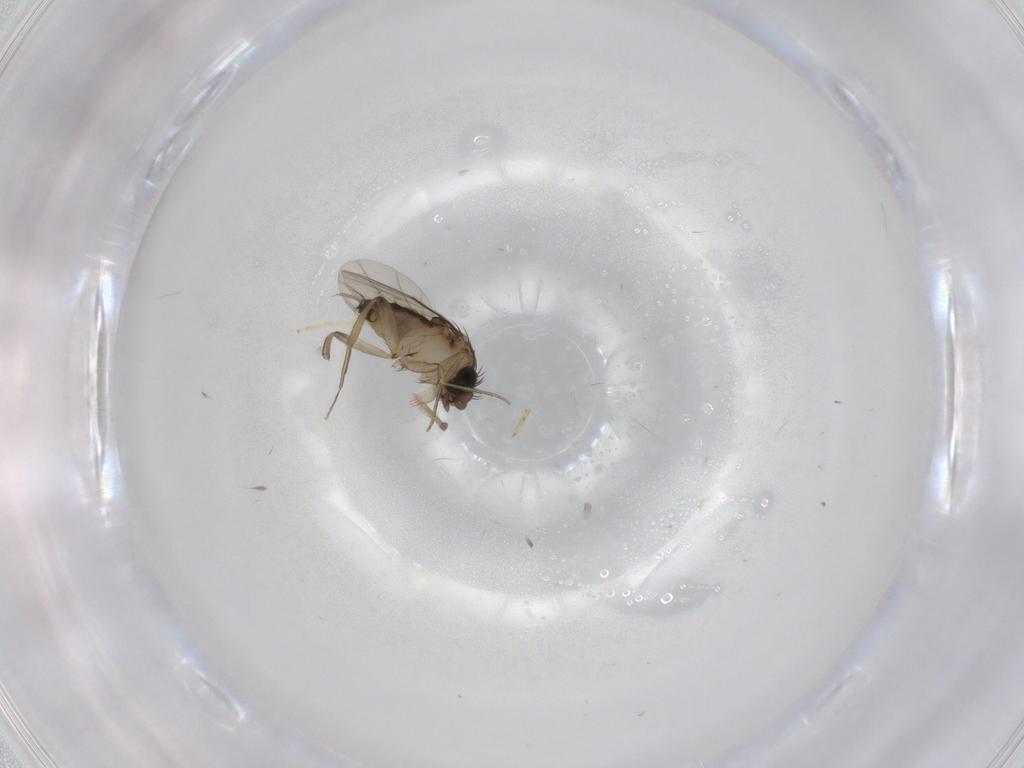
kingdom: Animalia
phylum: Arthropoda
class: Insecta
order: Diptera
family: Phoridae
